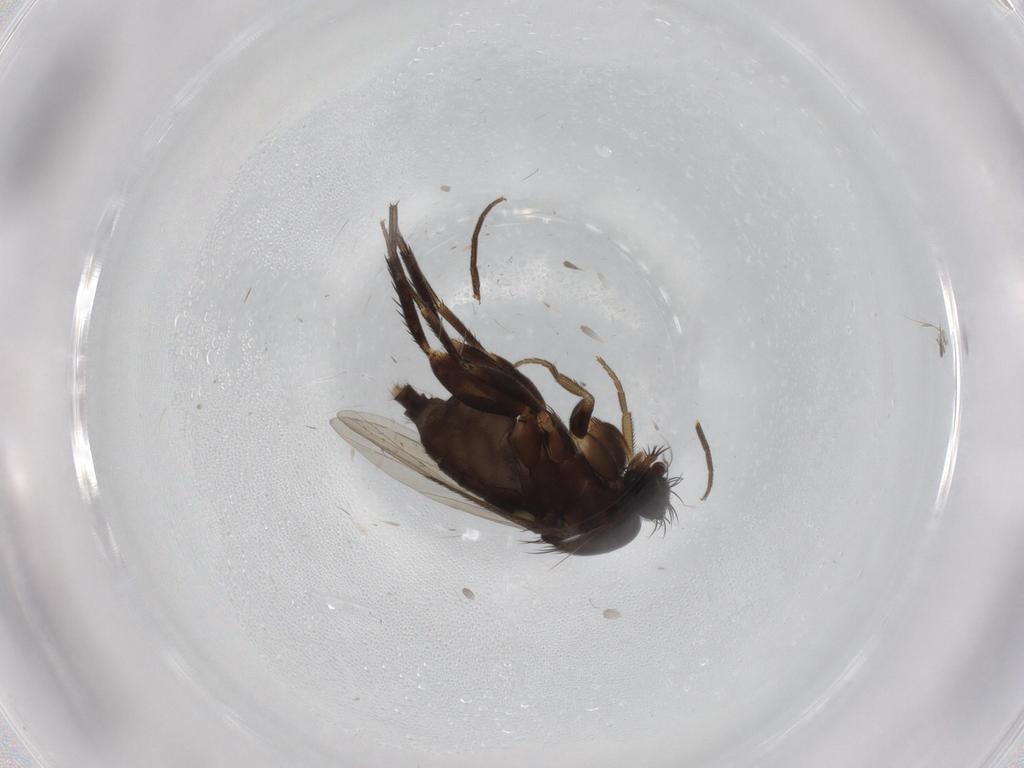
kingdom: Animalia
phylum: Arthropoda
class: Insecta
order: Diptera
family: Phoridae
